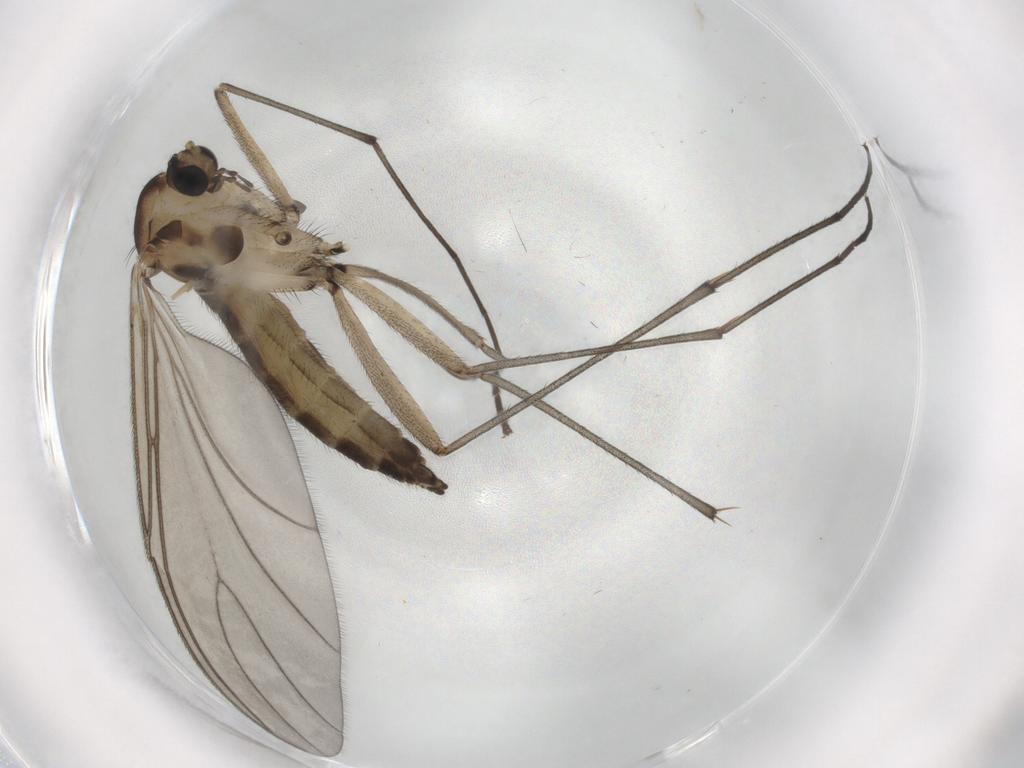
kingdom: Animalia
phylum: Arthropoda
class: Insecta
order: Diptera
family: Sciaridae
